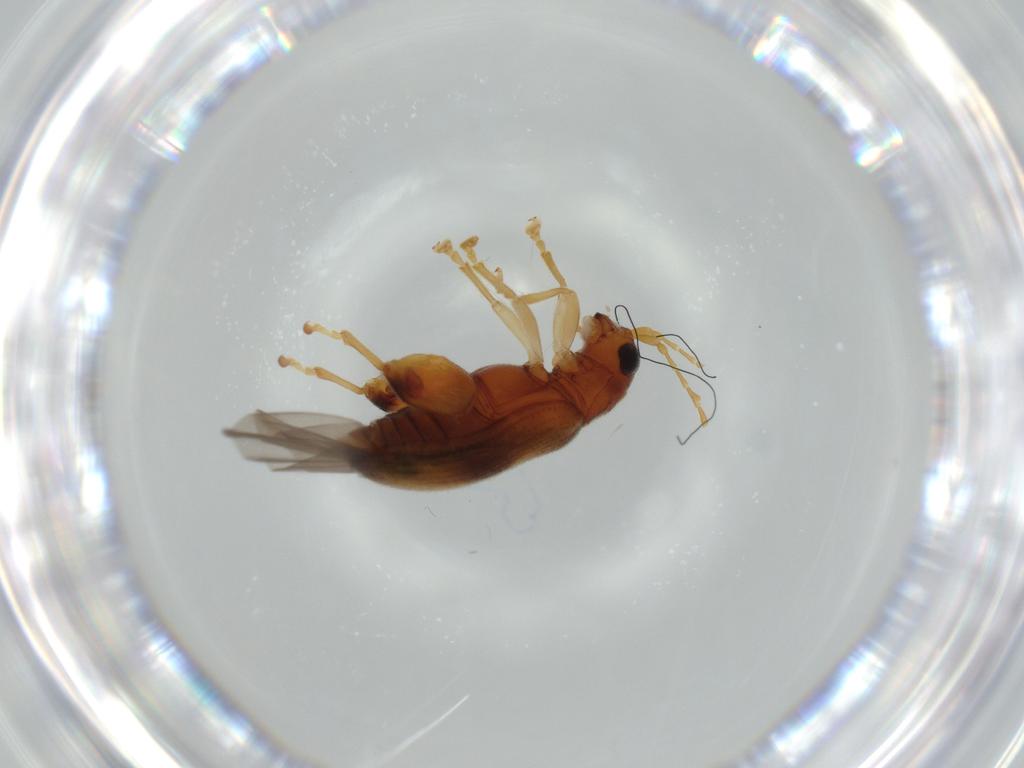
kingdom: Animalia
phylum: Arthropoda
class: Insecta
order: Coleoptera
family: Chrysomelidae
